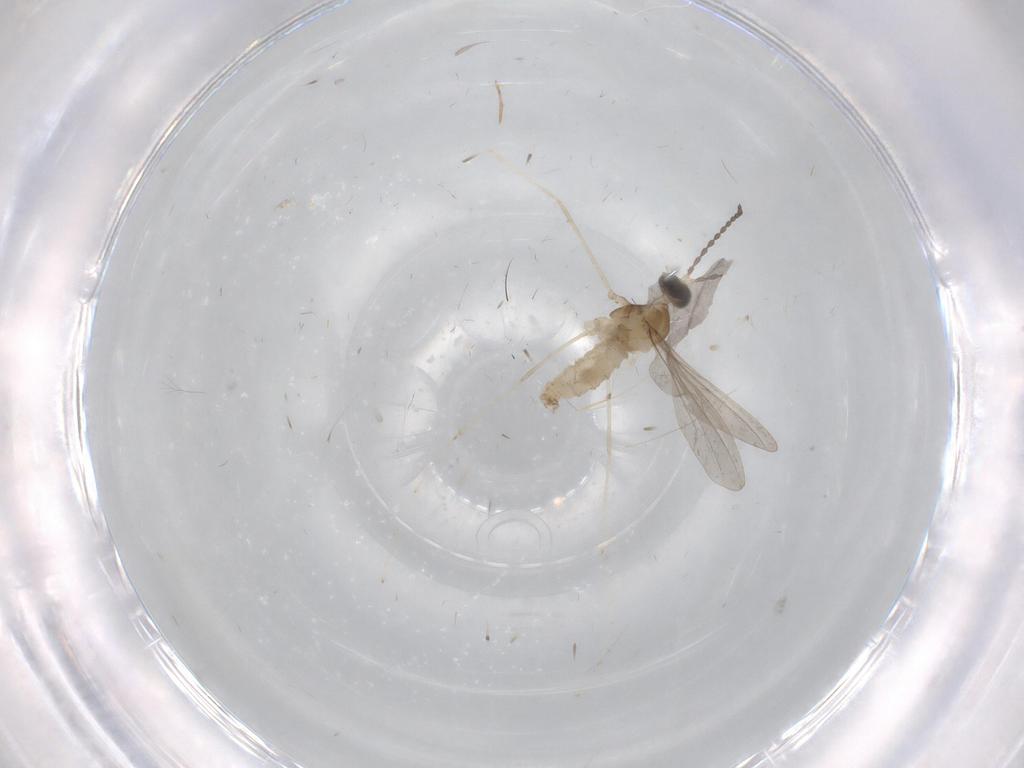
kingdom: Animalia
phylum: Arthropoda
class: Insecta
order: Diptera
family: Cecidomyiidae
